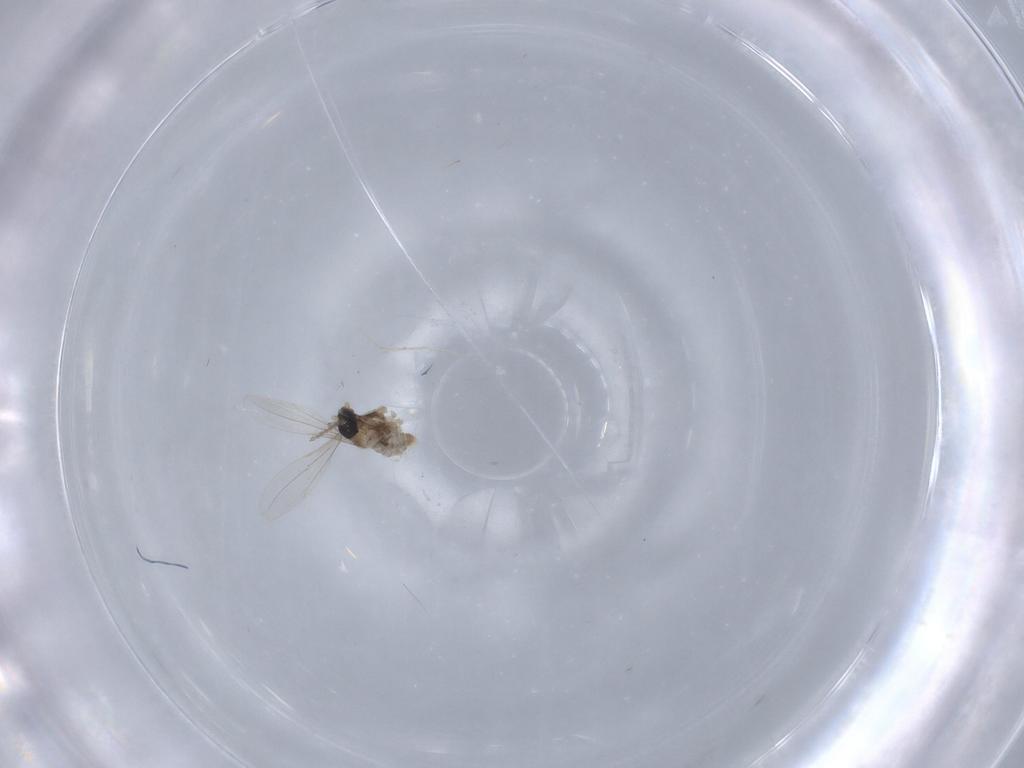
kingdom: Animalia
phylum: Arthropoda
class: Insecta
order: Diptera
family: Cecidomyiidae
